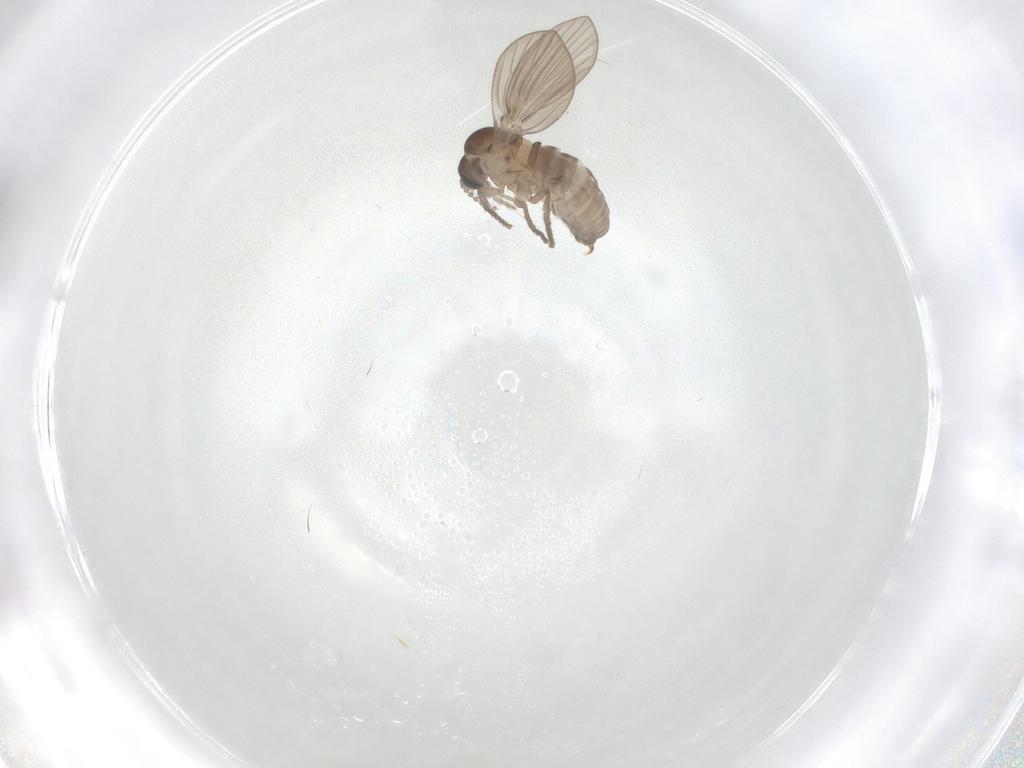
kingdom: Animalia
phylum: Arthropoda
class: Insecta
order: Diptera
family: Psychodidae
